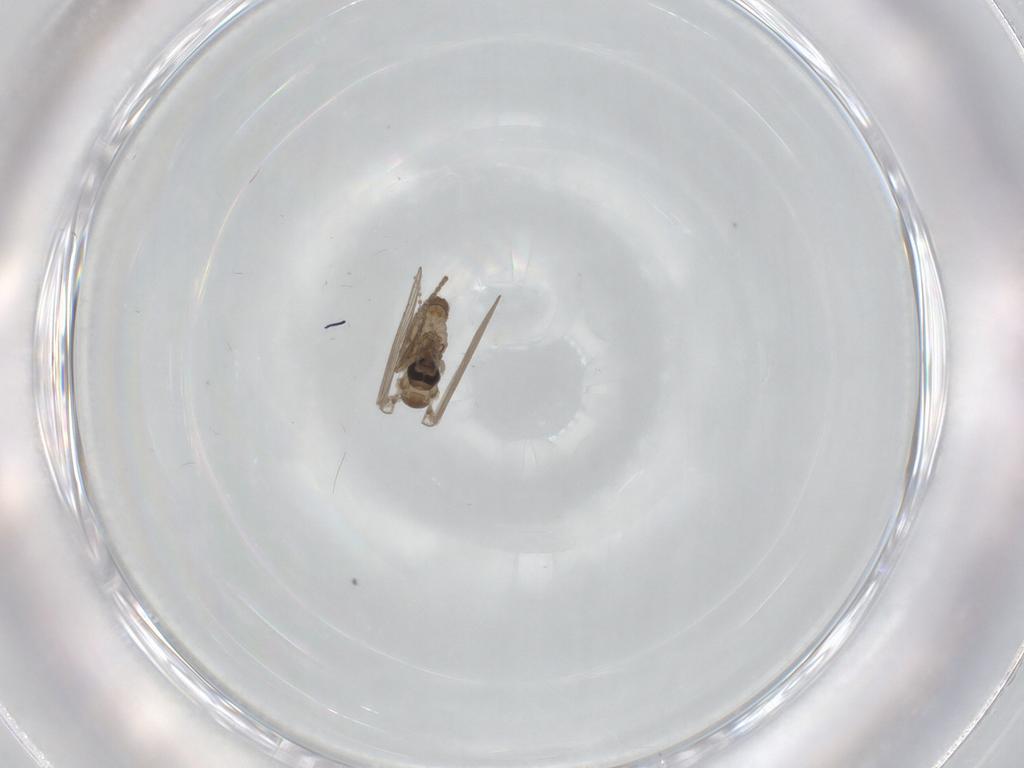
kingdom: Animalia
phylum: Arthropoda
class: Insecta
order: Diptera
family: Psychodidae
